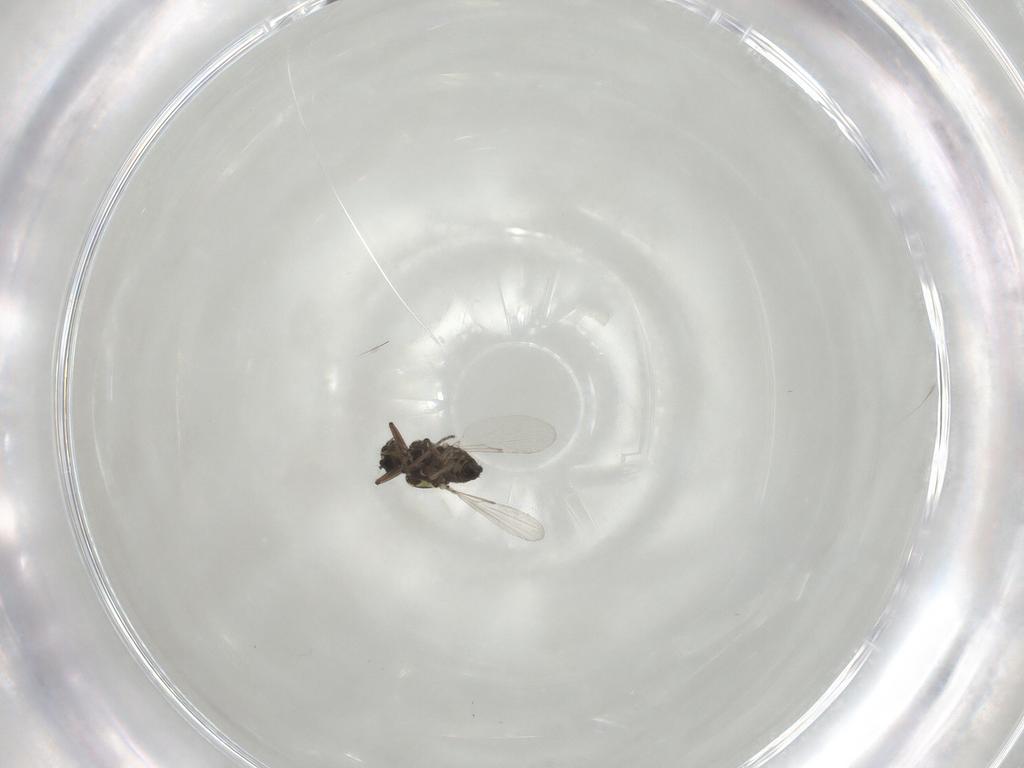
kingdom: Animalia
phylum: Arthropoda
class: Insecta
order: Diptera
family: Ceratopogonidae
